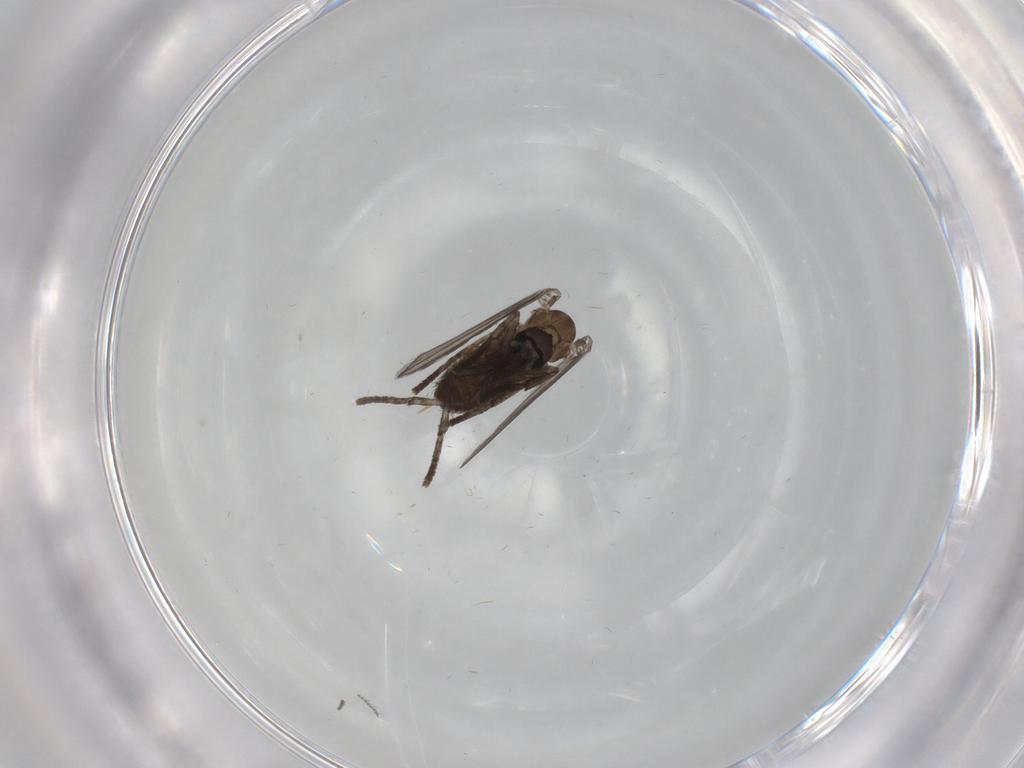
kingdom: Animalia
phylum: Arthropoda
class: Insecta
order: Diptera
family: Psychodidae
